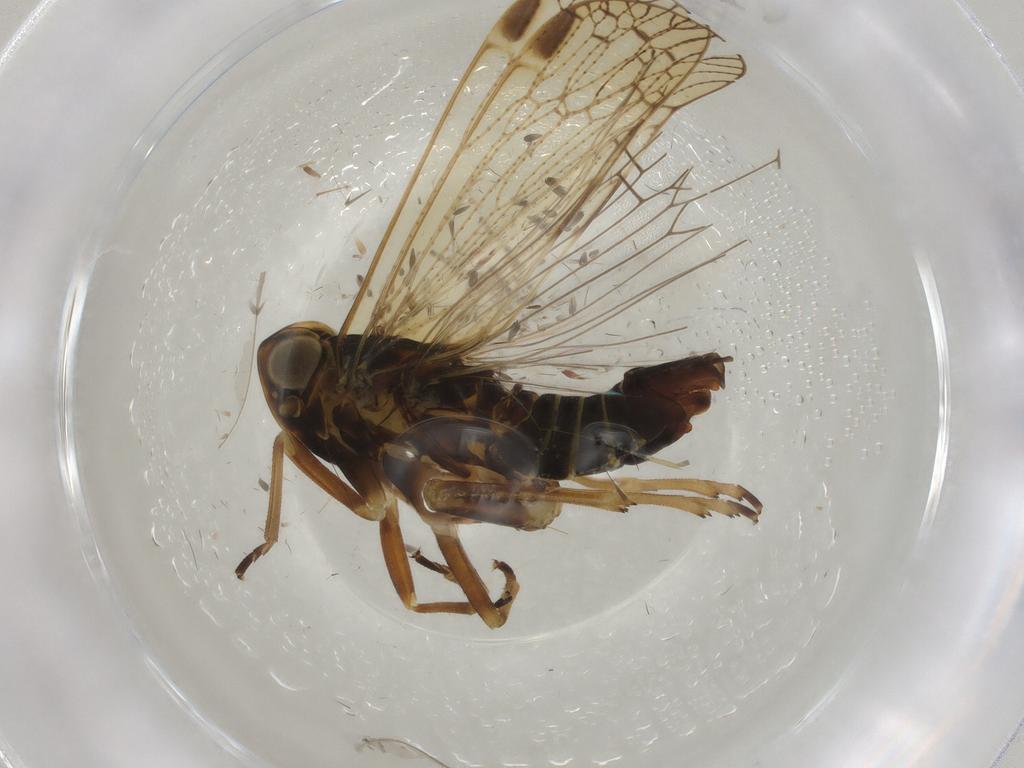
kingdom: Animalia
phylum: Arthropoda
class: Insecta
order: Hemiptera
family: Cixiidae
